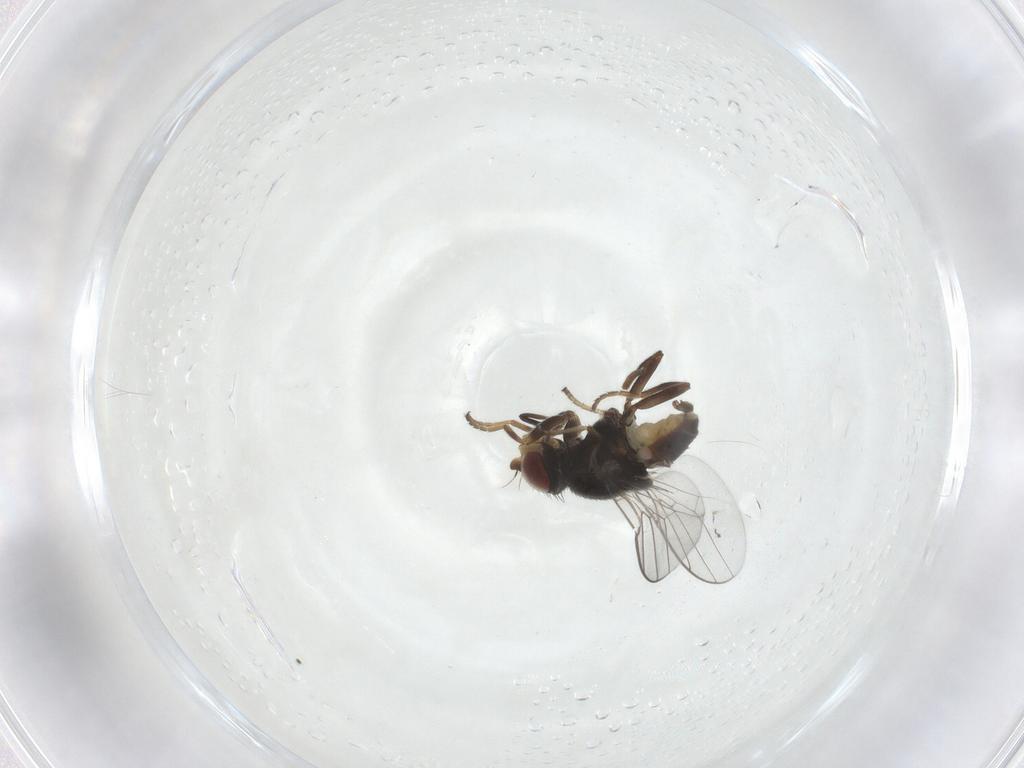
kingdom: Animalia
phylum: Arthropoda
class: Insecta
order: Diptera
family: Chloropidae
